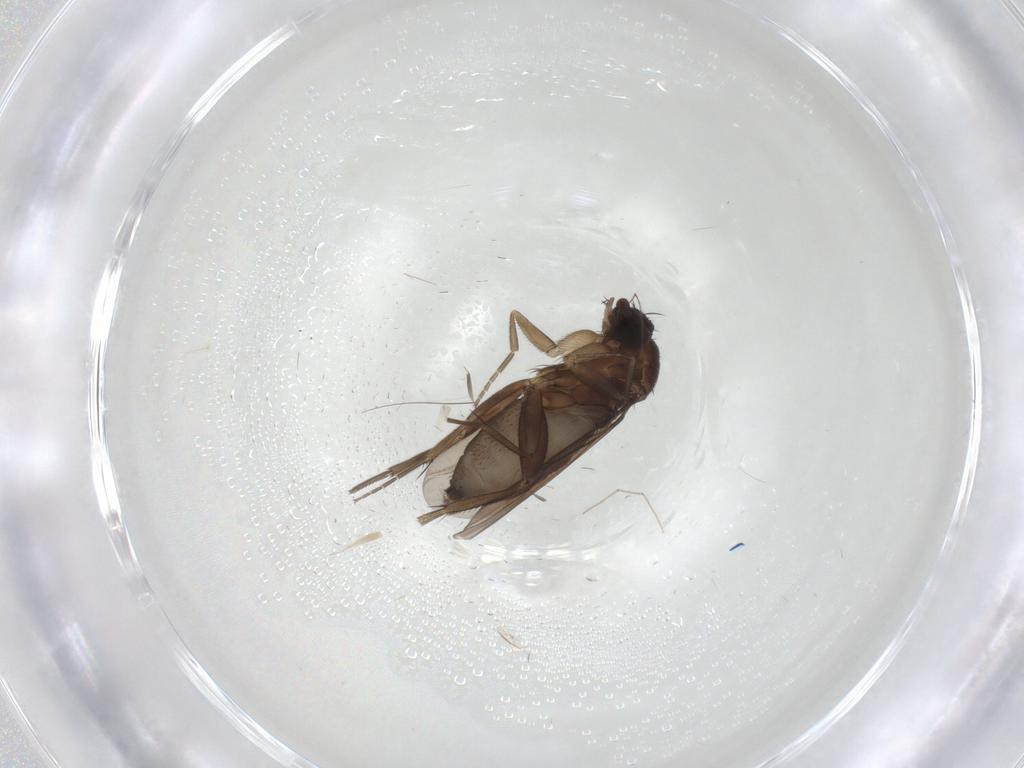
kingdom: Animalia
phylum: Arthropoda
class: Insecta
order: Diptera
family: Phoridae
